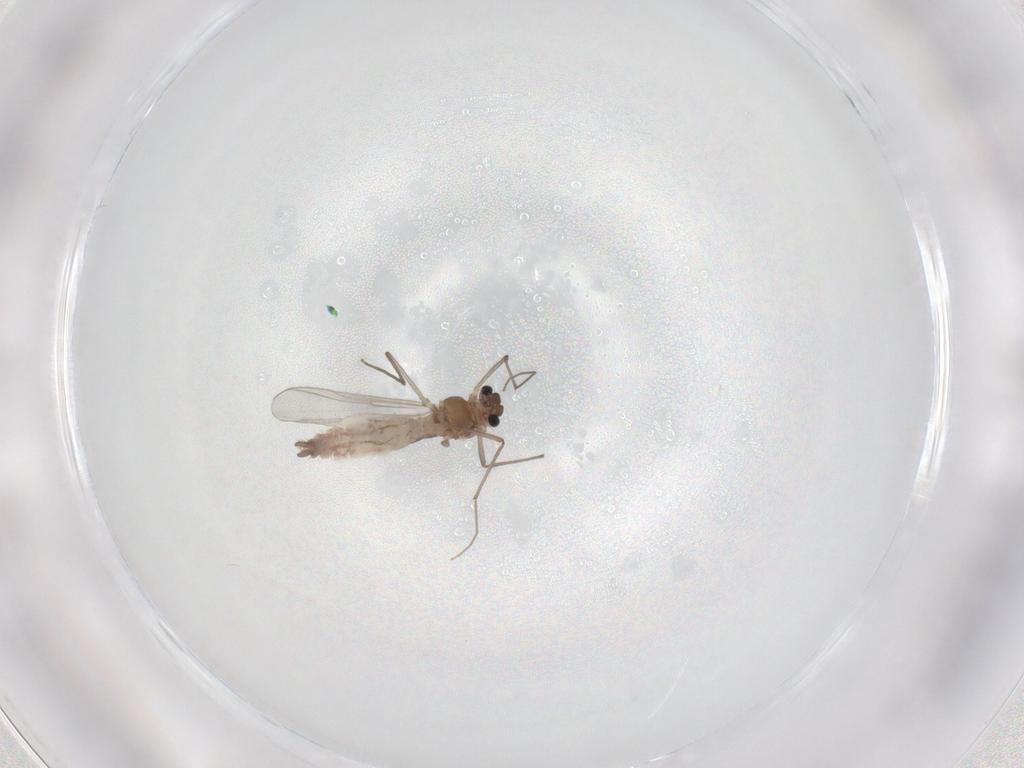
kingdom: Animalia
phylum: Arthropoda
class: Insecta
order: Diptera
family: Chironomidae
